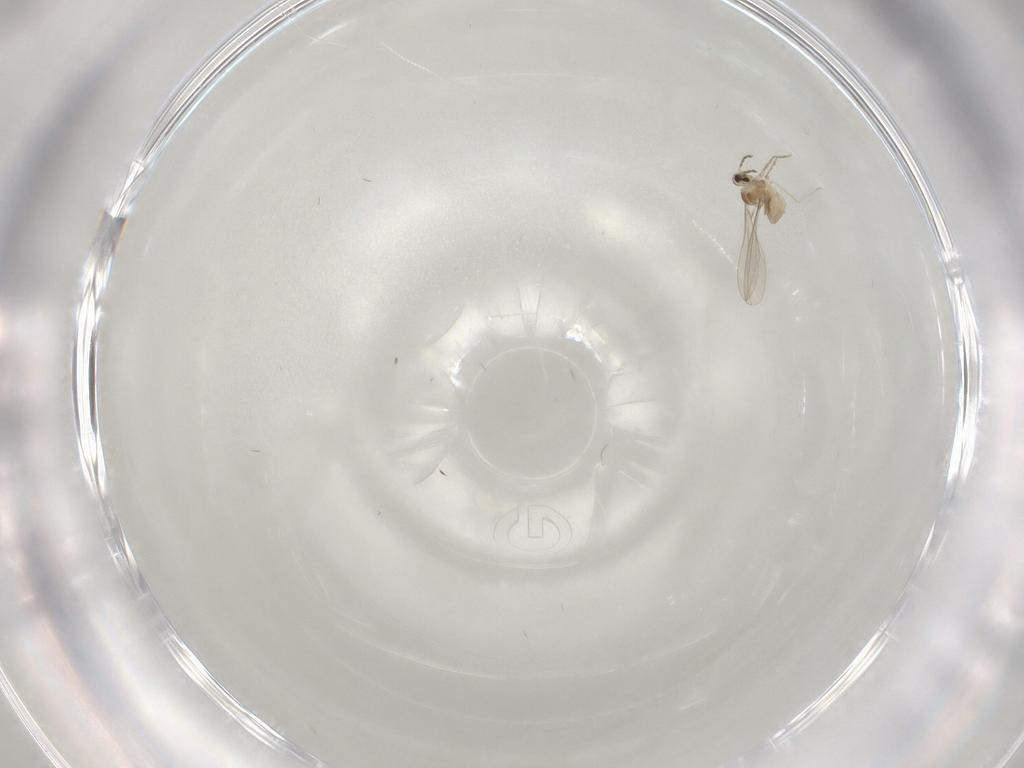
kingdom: Animalia
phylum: Arthropoda
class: Insecta
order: Diptera
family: Cecidomyiidae
